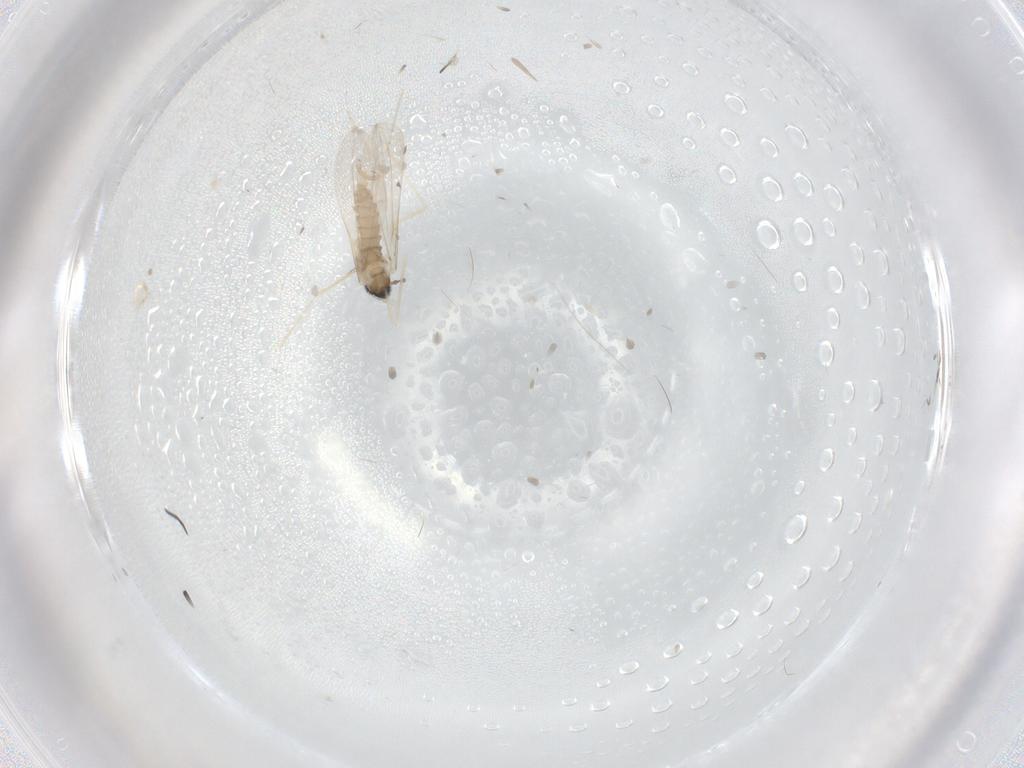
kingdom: Animalia
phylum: Arthropoda
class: Insecta
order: Diptera
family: Cecidomyiidae
